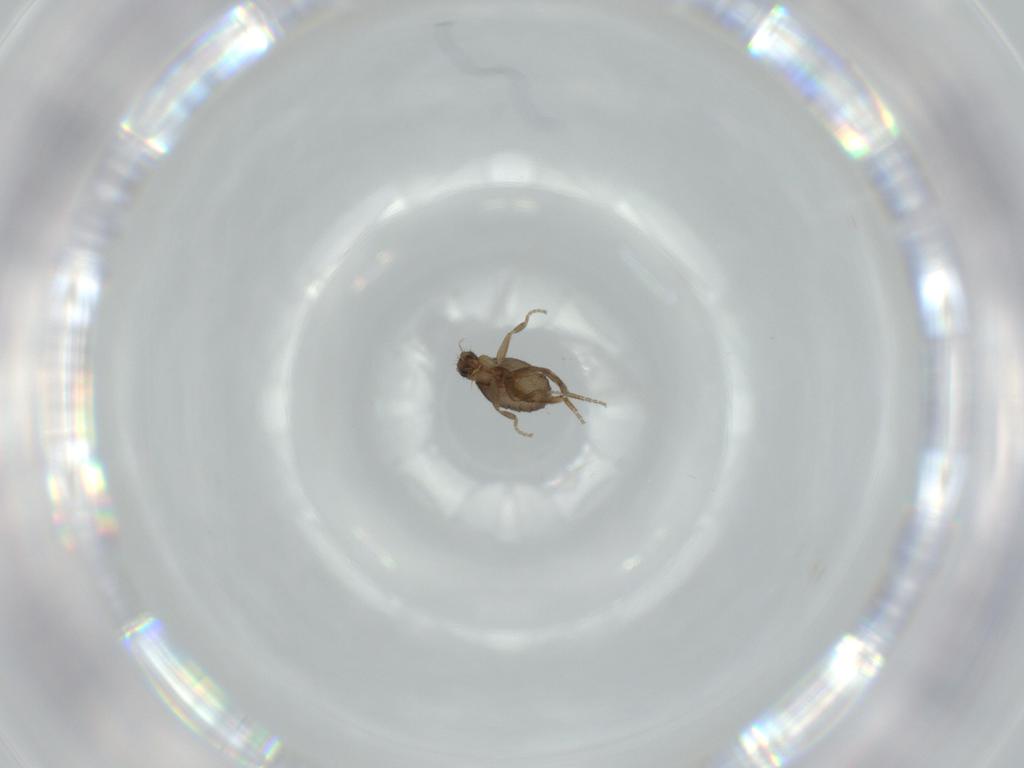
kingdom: Animalia
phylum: Arthropoda
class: Insecta
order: Diptera
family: Phoridae
